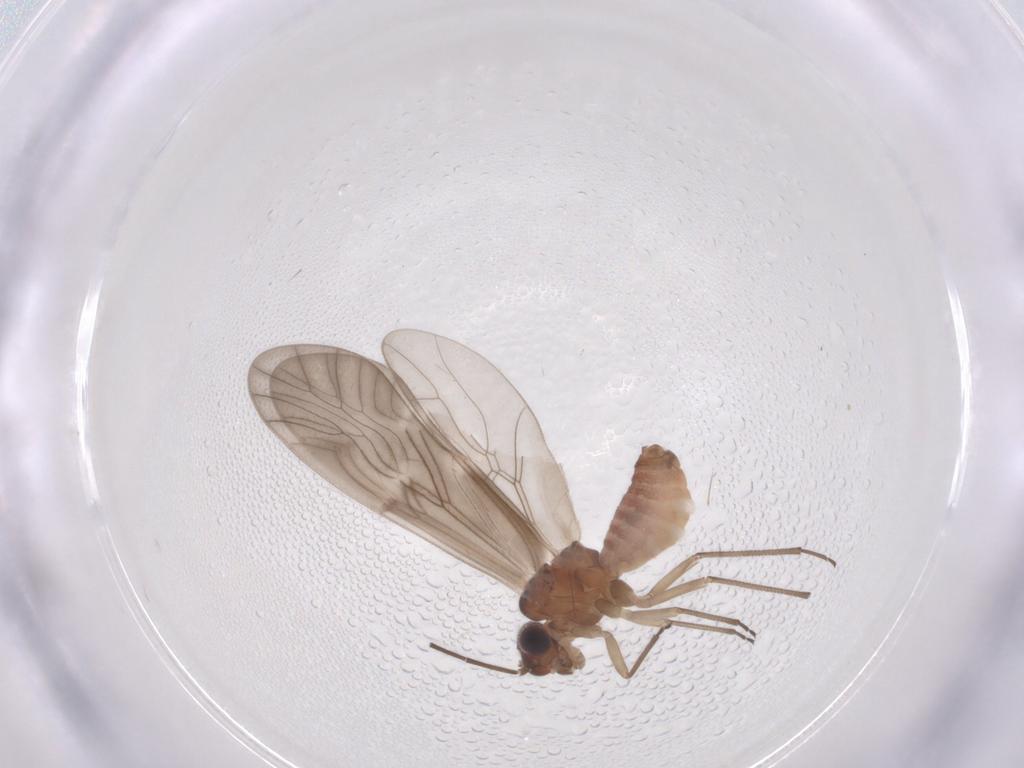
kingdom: Animalia
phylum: Arthropoda
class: Insecta
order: Psocodea
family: Caeciliusidae
